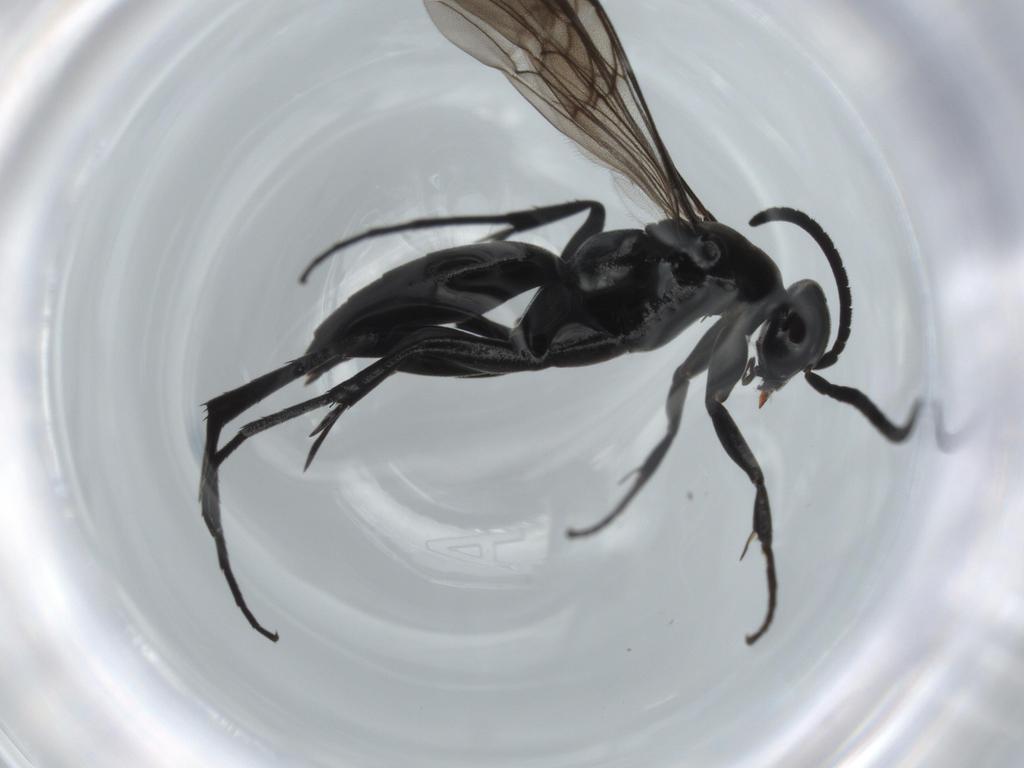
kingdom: Animalia
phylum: Arthropoda
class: Insecta
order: Hymenoptera
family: Pompilidae
